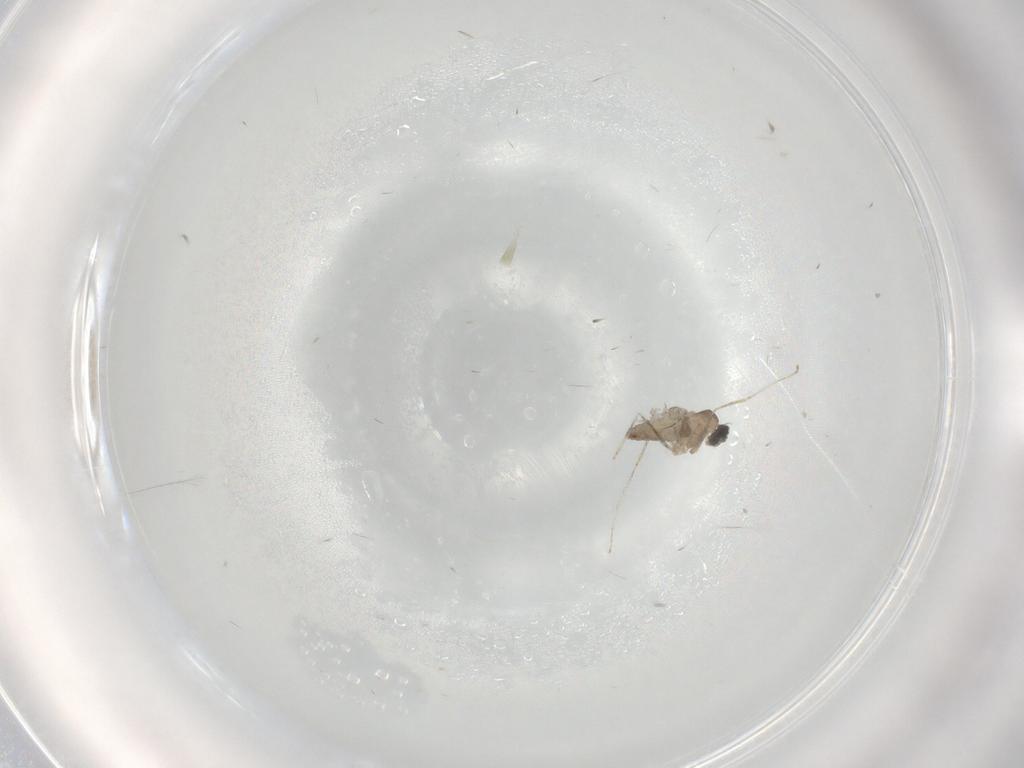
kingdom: Animalia
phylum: Arthropoda
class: Insecta
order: Diptera
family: Cecidomyiidae
